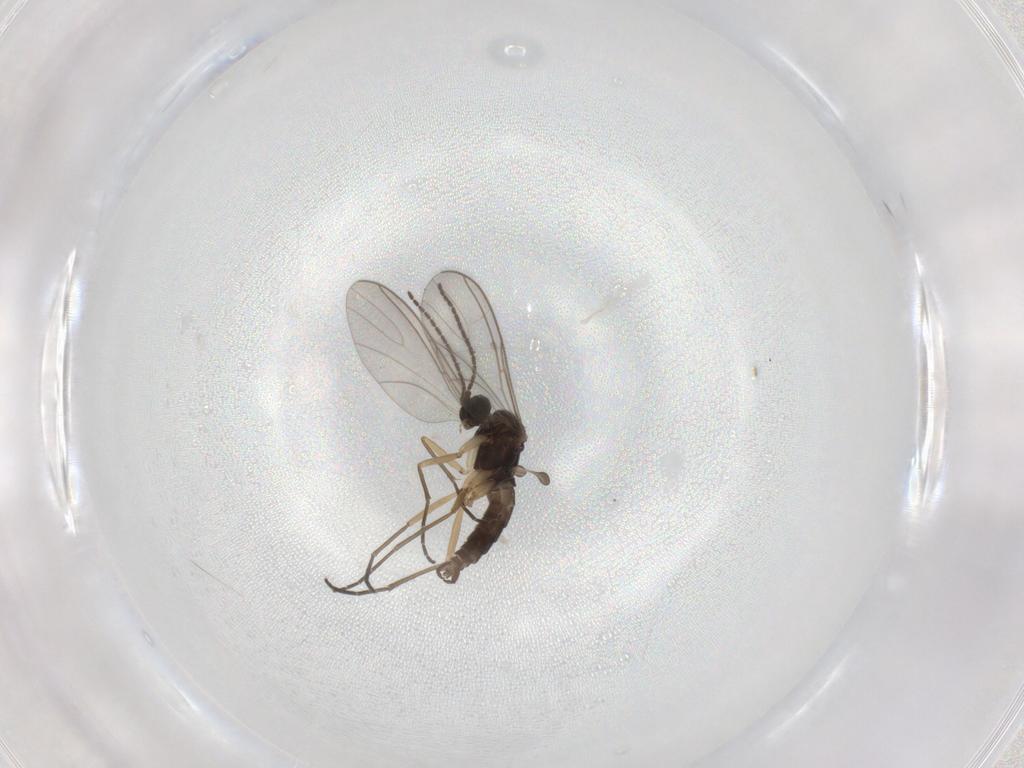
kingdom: Animalia
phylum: Arthropoda
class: Insecta
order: Diptera
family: Sciaridae
